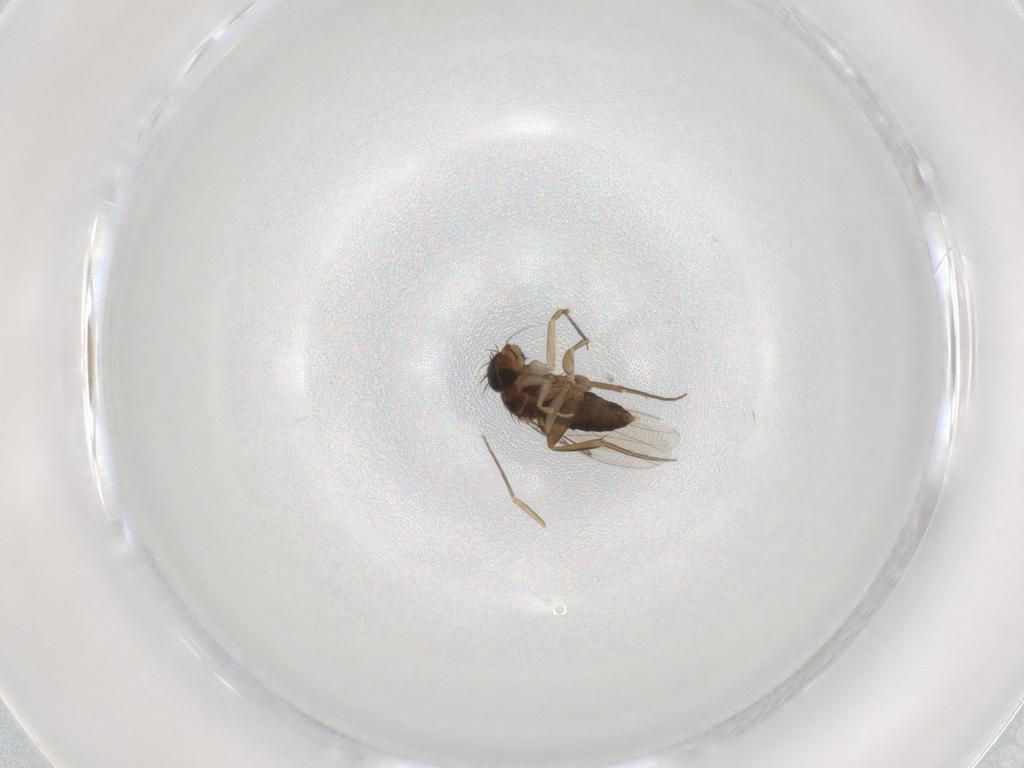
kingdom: Animalia
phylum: Arthropoda
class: Insecta
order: Diptera
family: Phoridae
